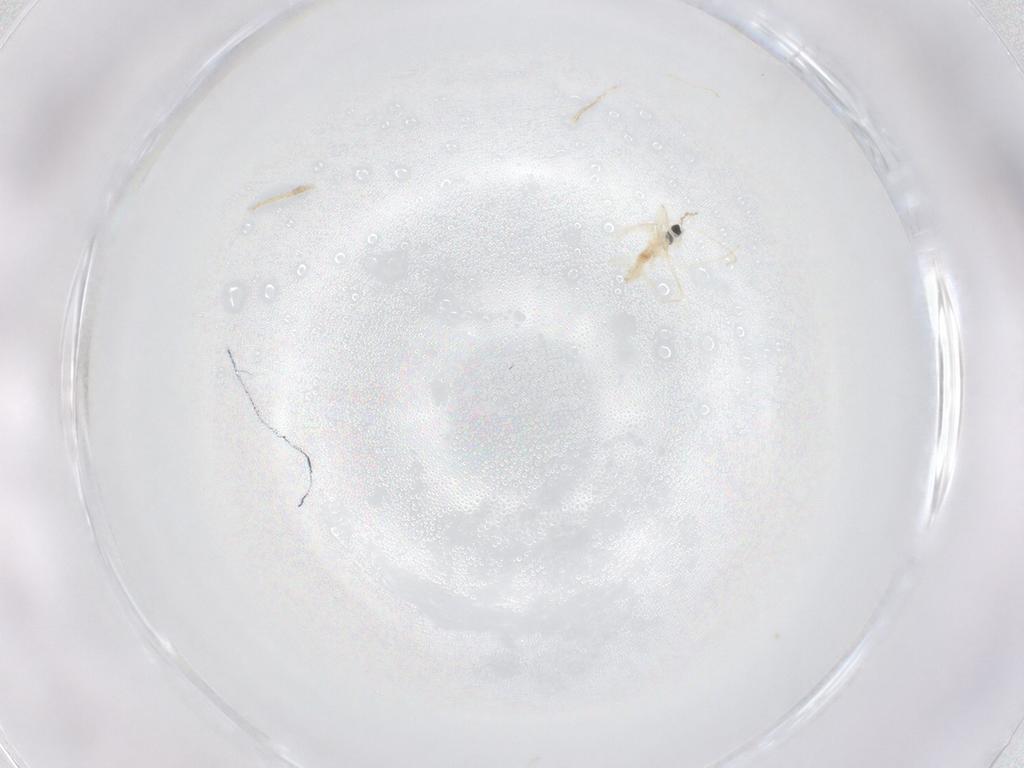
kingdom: Animalia
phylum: Arthropoda
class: Insecta
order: Diptera
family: Cecidomyiidae
